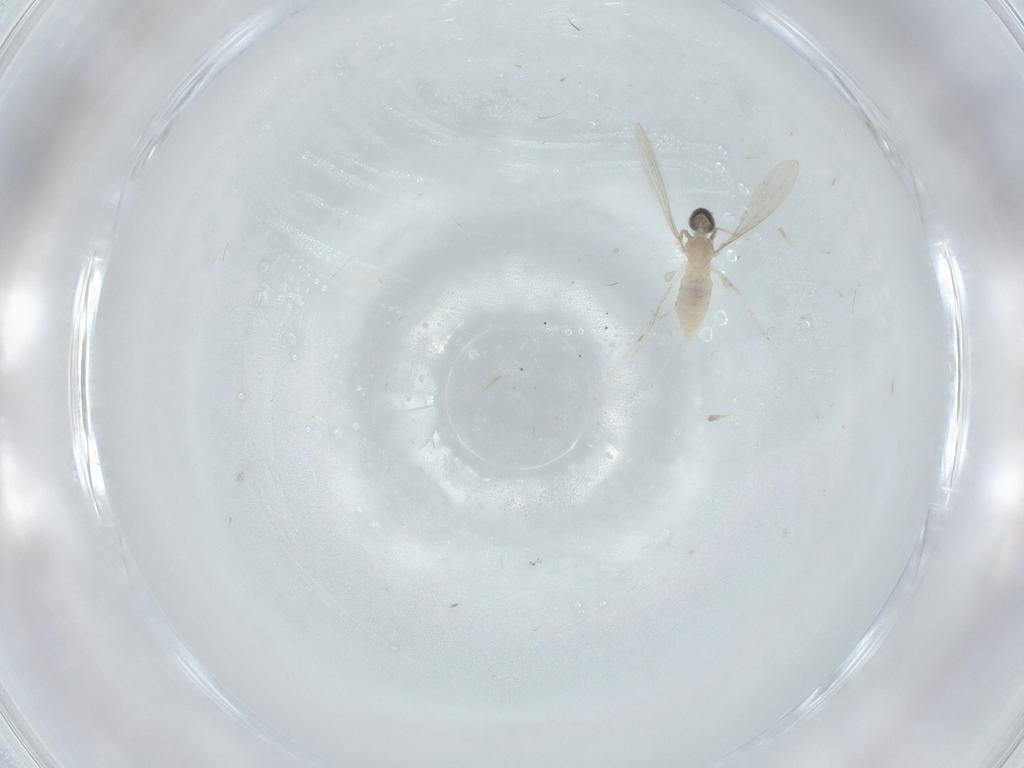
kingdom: Animalia
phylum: Arthropoda
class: Insecta
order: Diptera
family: Cecidomyiidae
